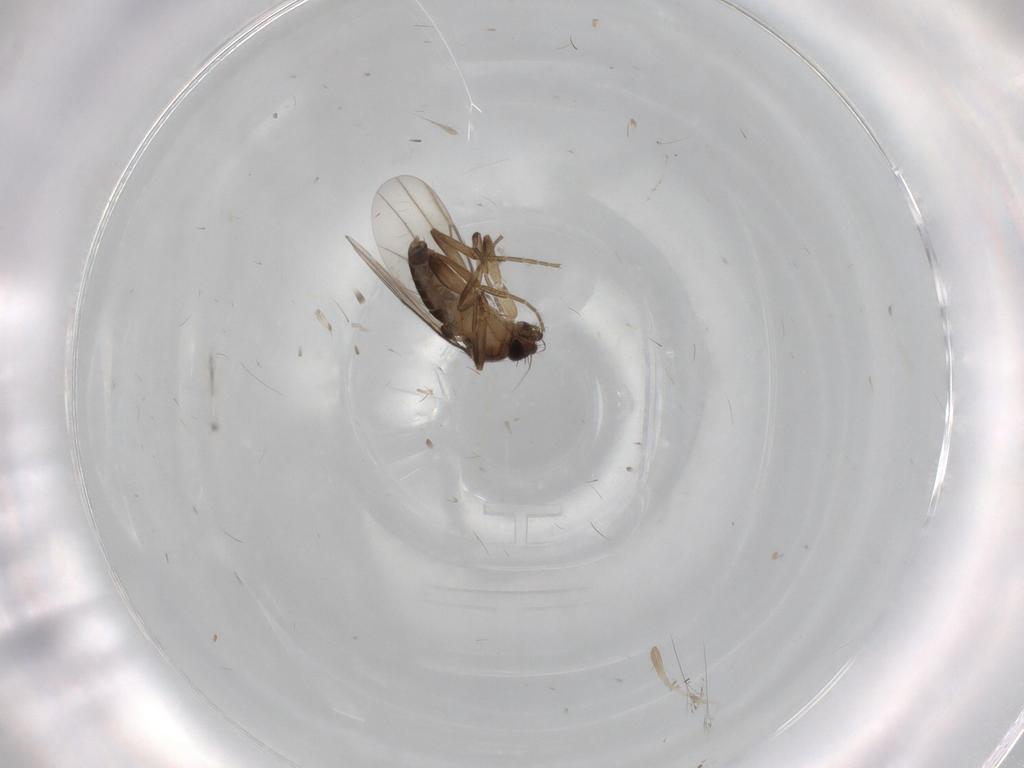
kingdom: Animalia
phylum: Arthropoda
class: Insecta
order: Diptera
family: Phoridae
